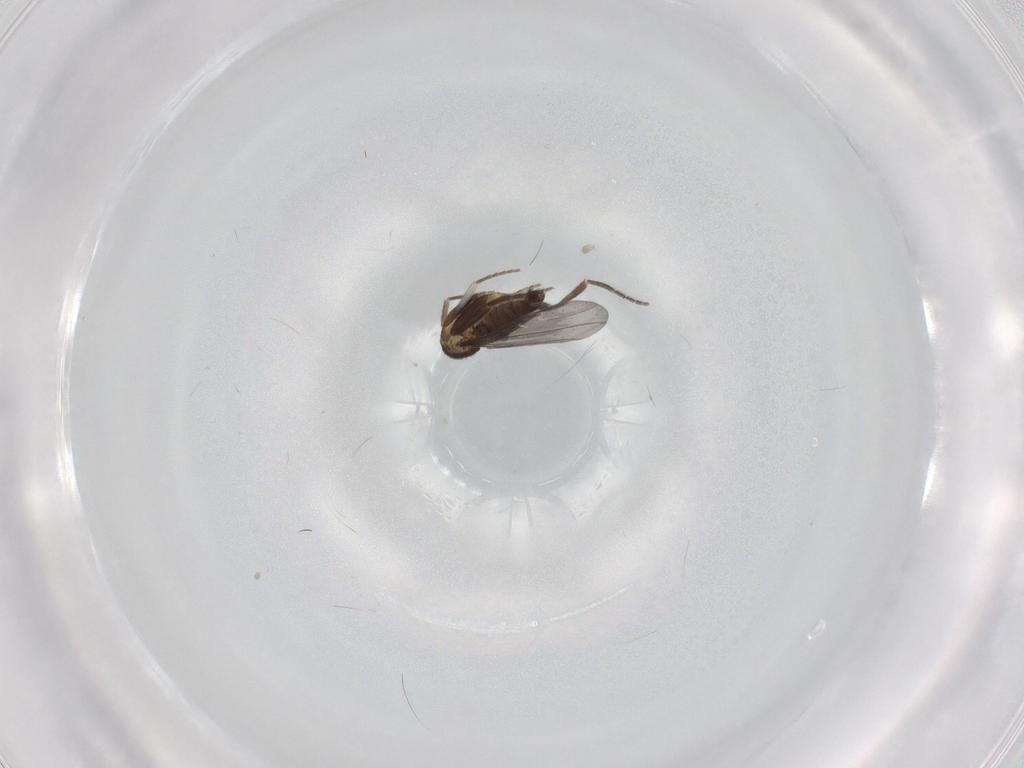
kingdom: Animalia
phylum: Arthropoda
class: Insecta
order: Diptera
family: Phoridae
